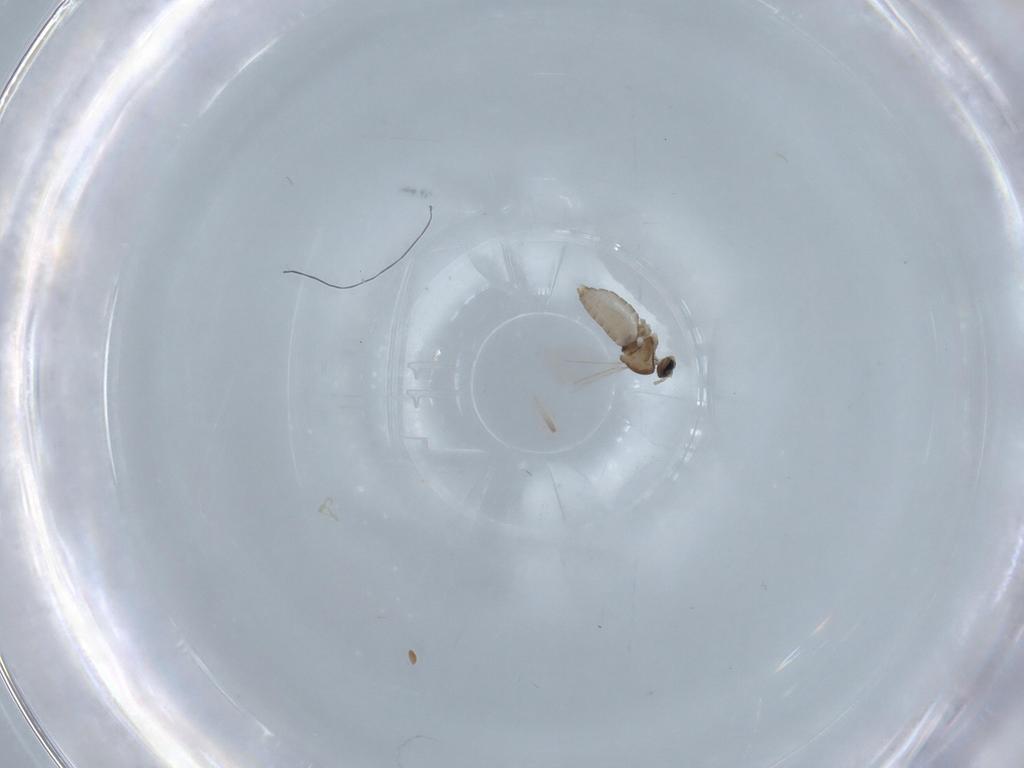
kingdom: Animalia
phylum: Arthropoda
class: Insecta
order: Diptera
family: Cecidomyiidae
